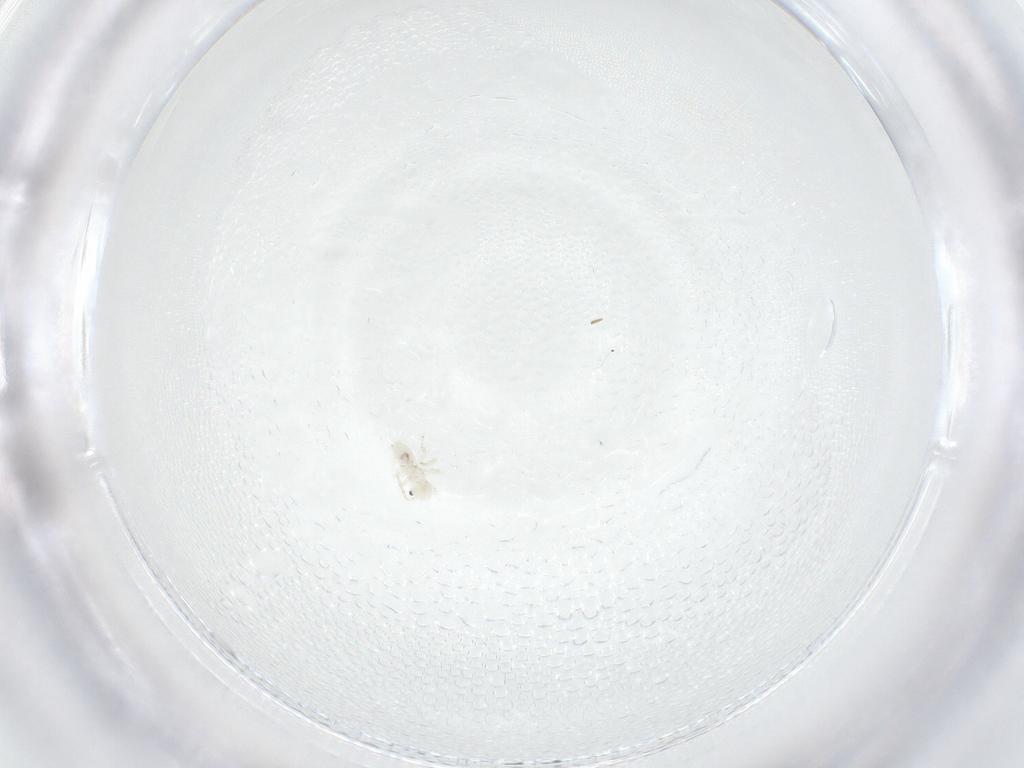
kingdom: Animalia
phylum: Arthropoda
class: Insecta
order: Psocodea
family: Caeciliusidae
